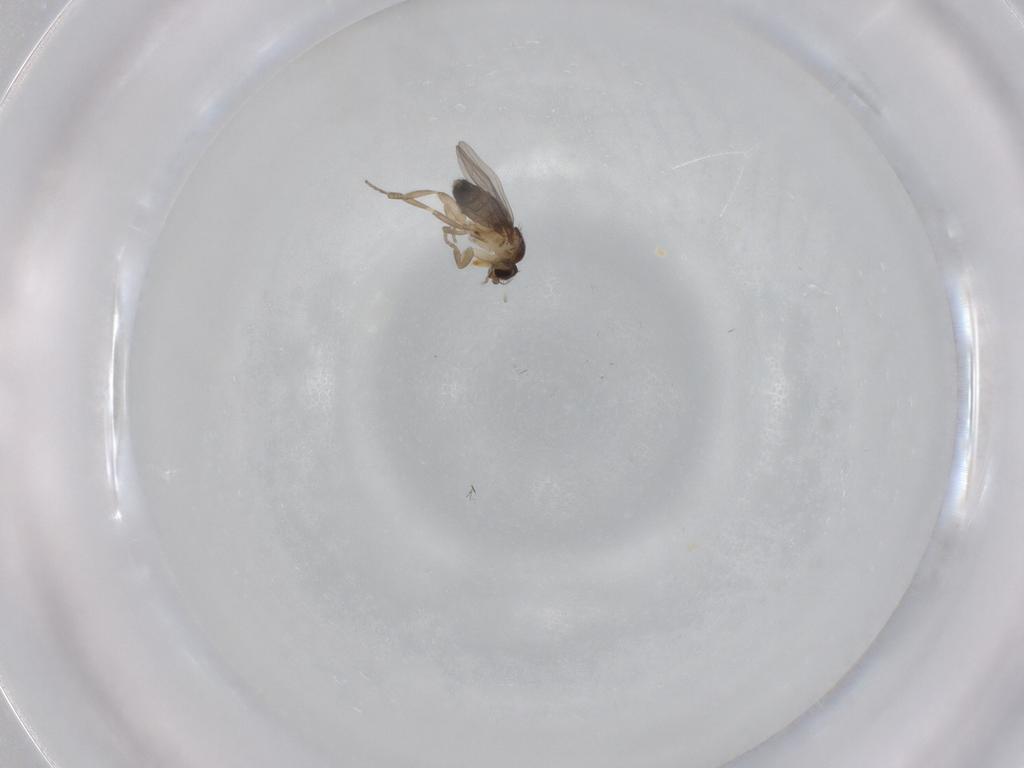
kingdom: Animalia
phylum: Arthropoda
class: Insecta
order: Diptera
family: Phoridae
